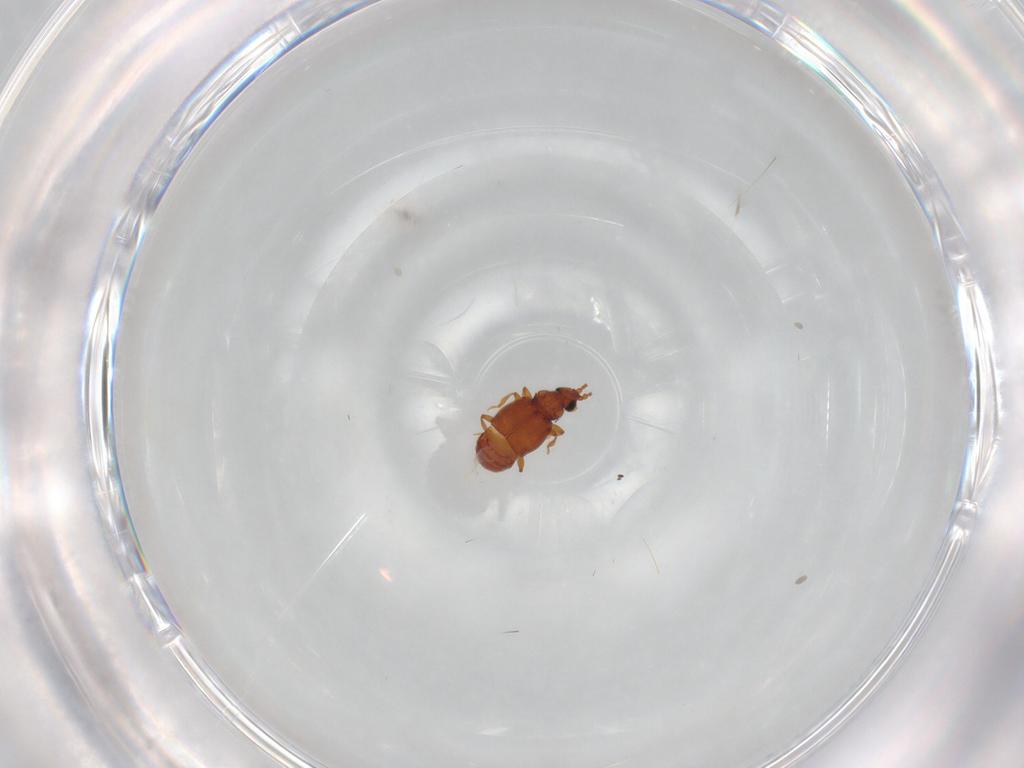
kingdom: Animalia
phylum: Arthropoda
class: Insecta
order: Coleoptera
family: Staphylinidae
